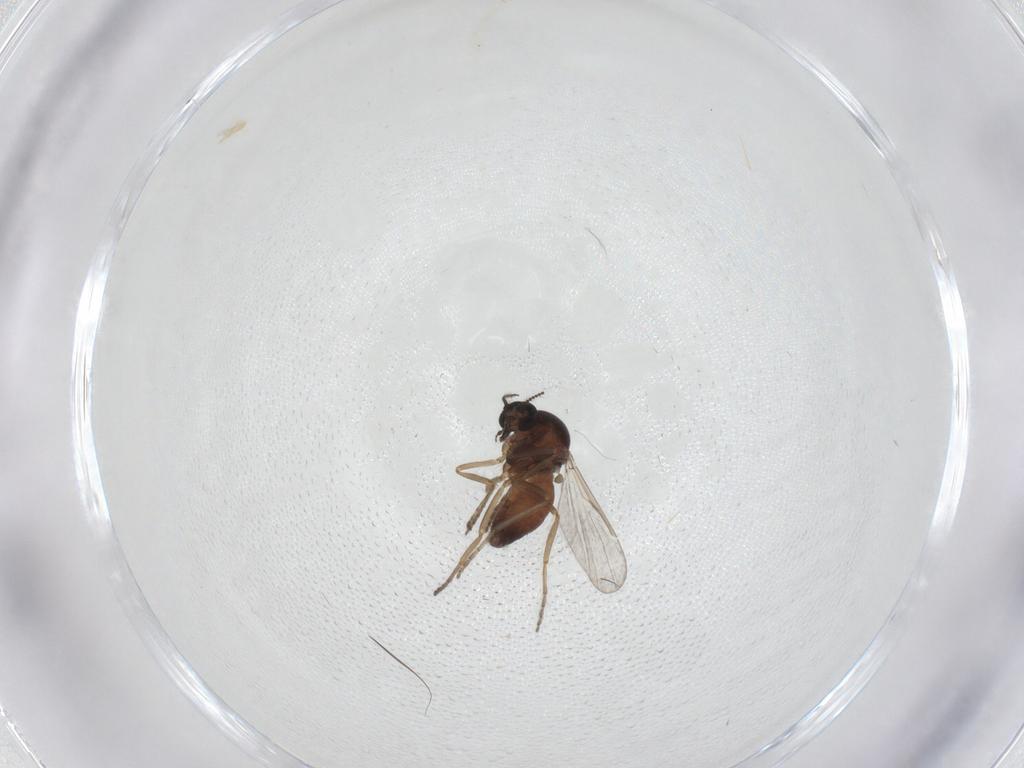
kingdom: Animalia
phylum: Arthropoda
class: Insecta
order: Diptera
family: Ceratopogonidae
